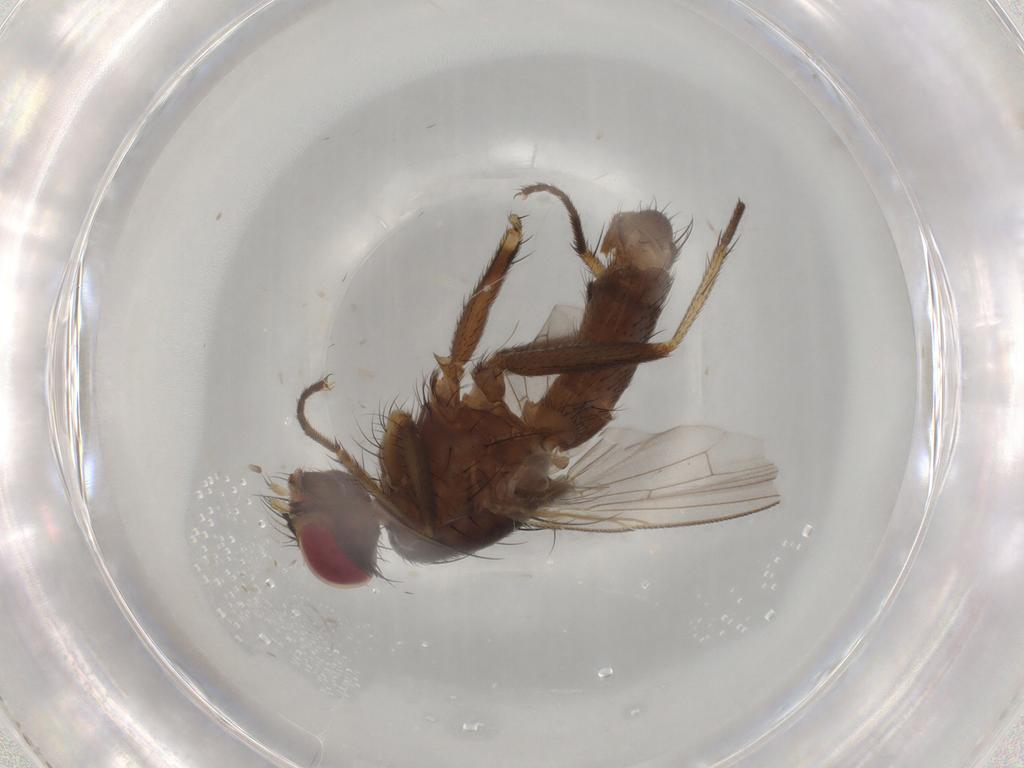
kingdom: Animalia
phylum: Arthropoda
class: Insecta
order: Diptera
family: Muscidae
